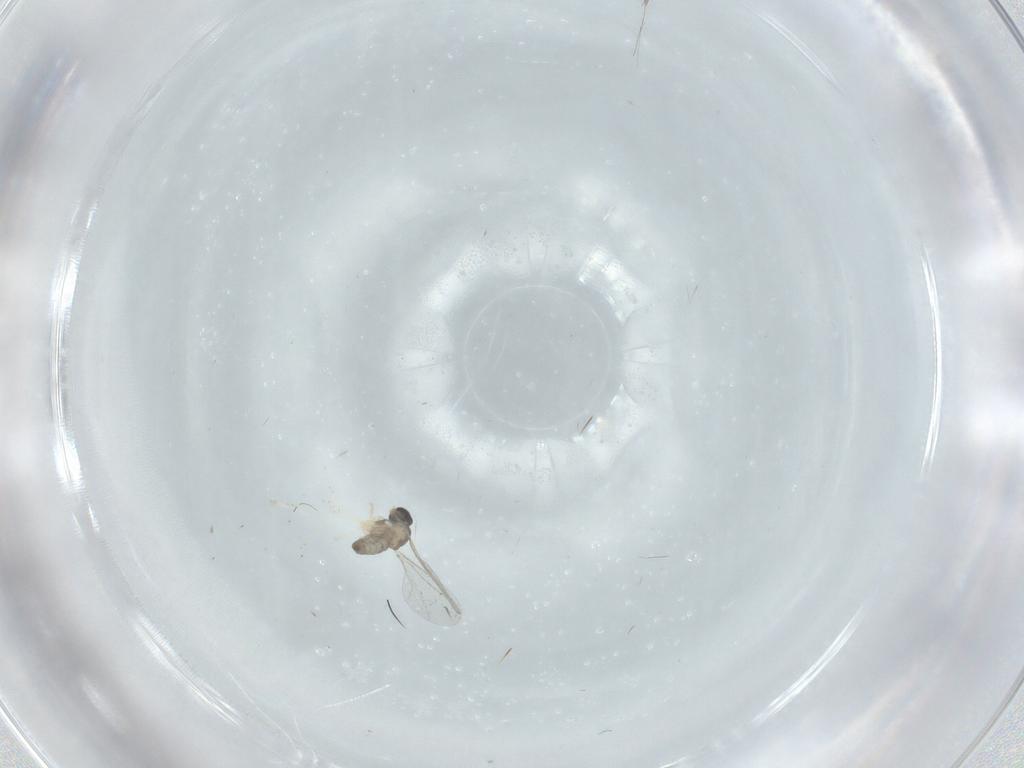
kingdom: Animalia
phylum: Arthropoda
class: Insecta
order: Diptera
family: Cecidomyiidae
